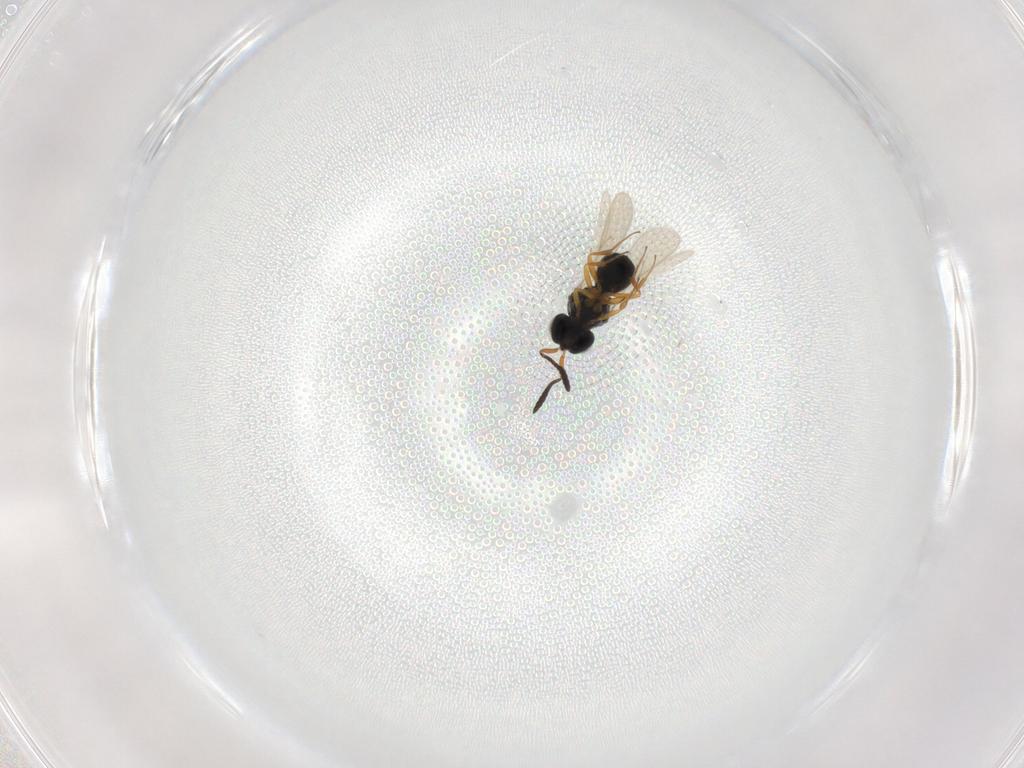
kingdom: Animalia
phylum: Arthropoda
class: Insecta
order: Hymenoptera
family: Scelionidae
